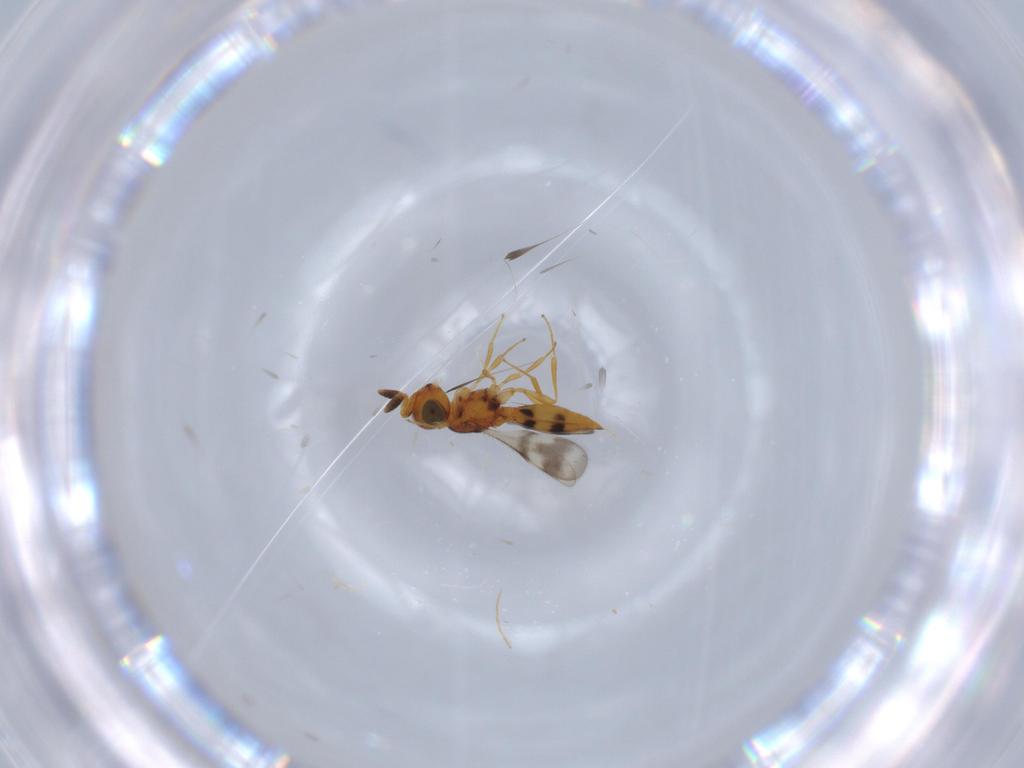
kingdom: Animalia
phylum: Arthropoda
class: Insecta
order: Hymenoptera
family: Scelionidae
